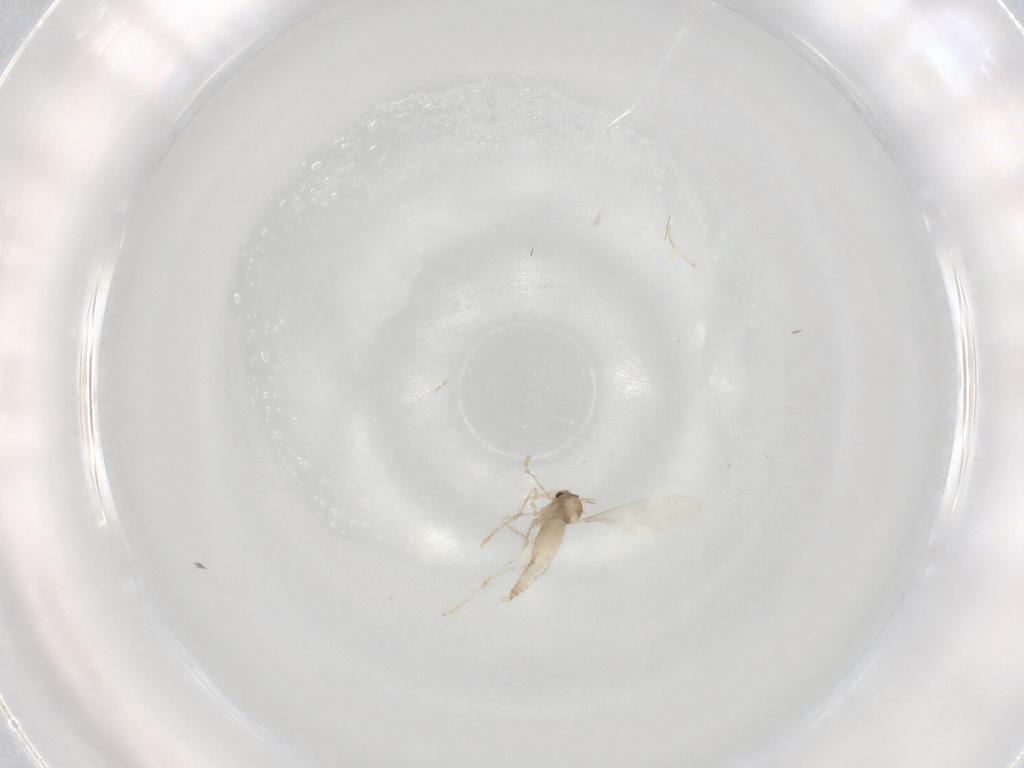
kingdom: Animalia
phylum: Arthropoda
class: Insecta
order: Diptera
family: Cecidomyiidae
